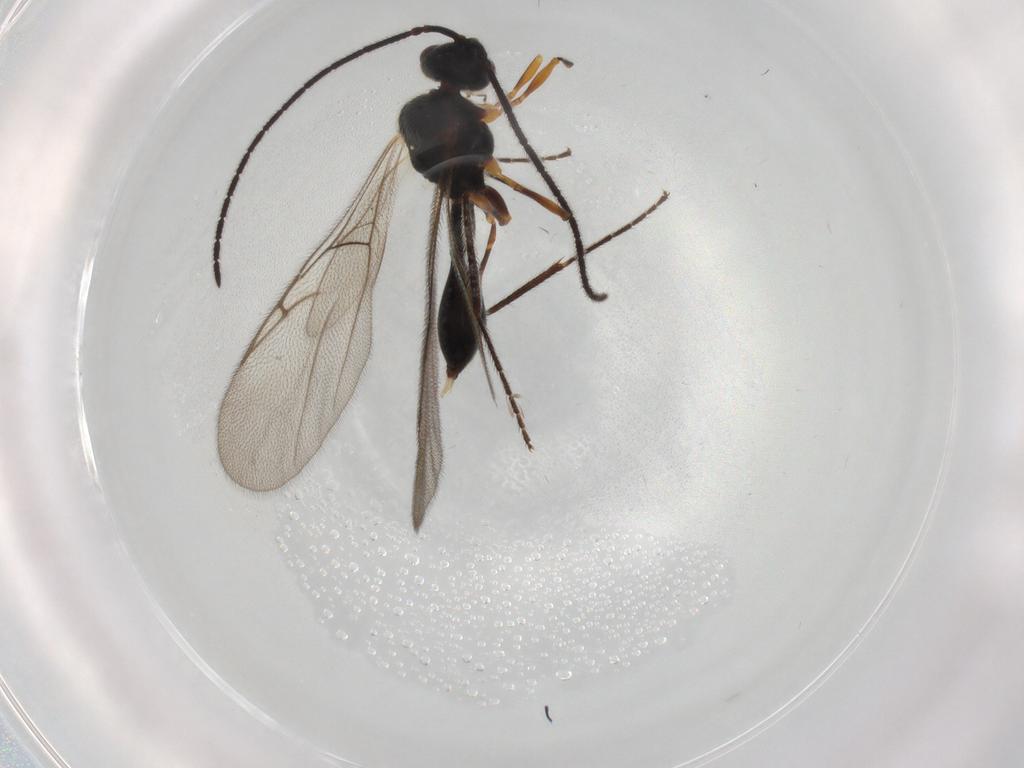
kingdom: Animalia
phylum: Arthropoda
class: Insecta
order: Hymenoptera
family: Diapriidae
